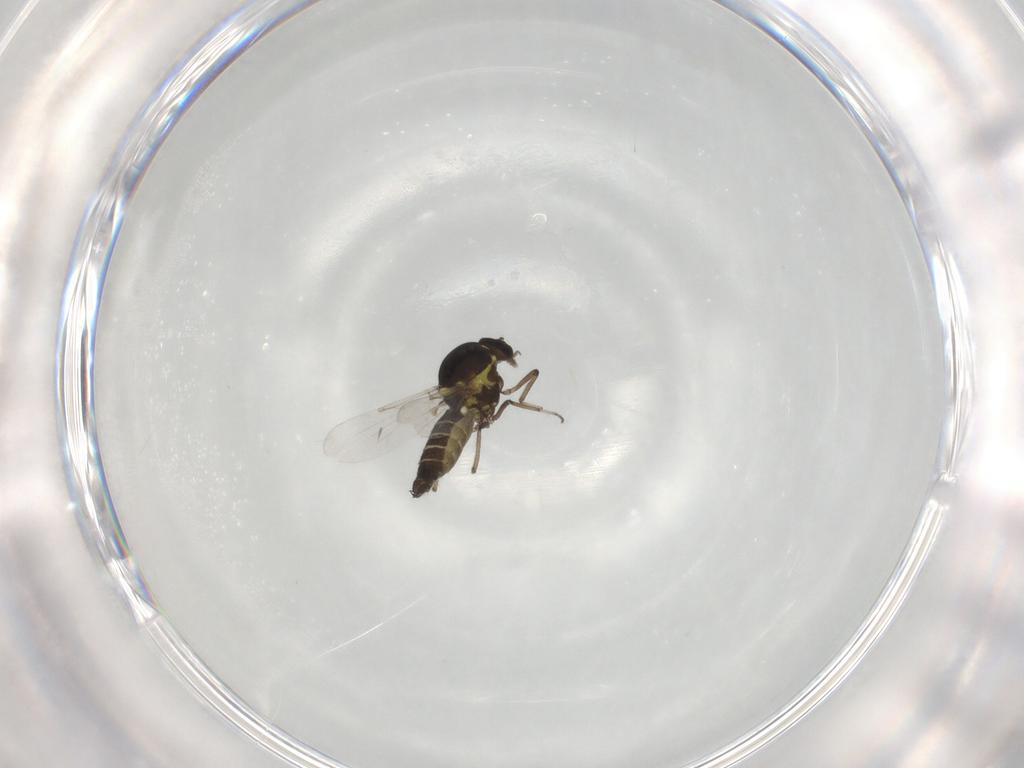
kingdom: Animalia
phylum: Arthropoda
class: Insecta
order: Diptera
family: Ceratopogonidae
